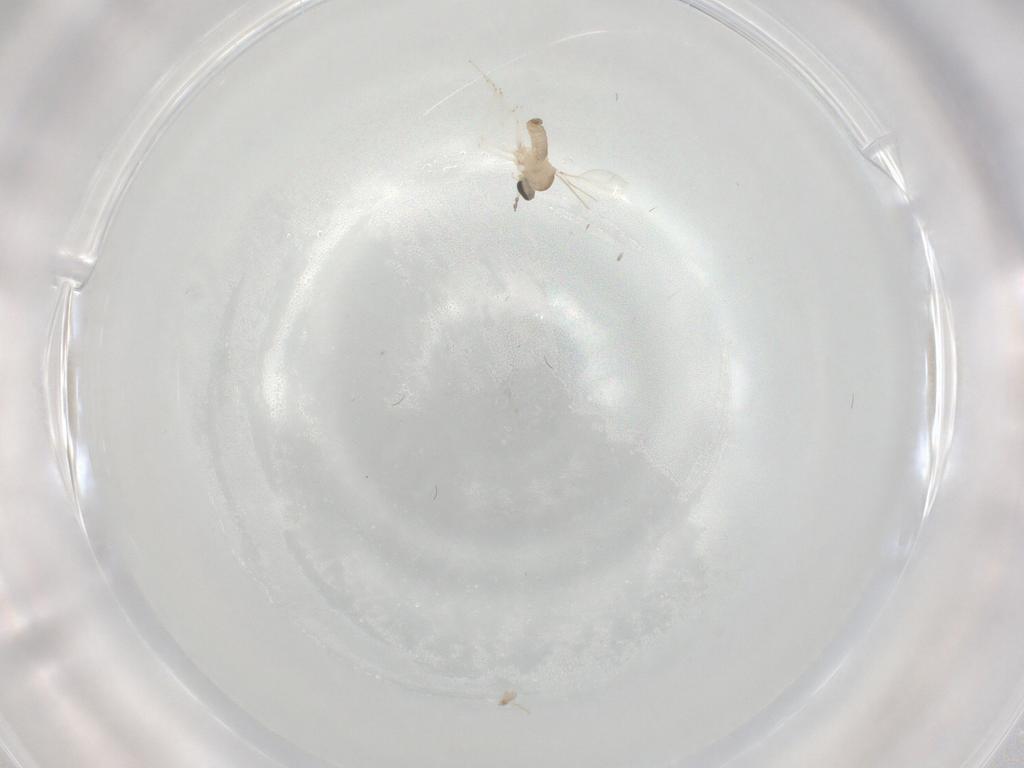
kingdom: Animalia
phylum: Arthropoda
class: Insecta
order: Diptera
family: Cecidomyiidae
